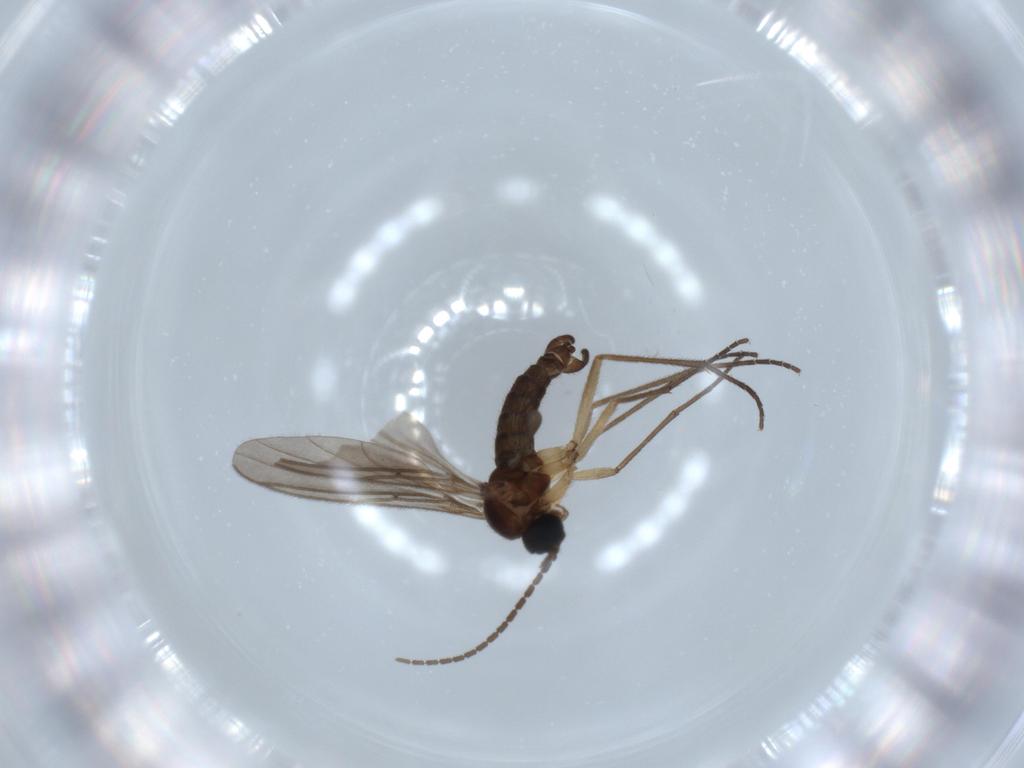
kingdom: Animalia
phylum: Arthropoda
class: Insecta
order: Diptera
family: Sciaridae
